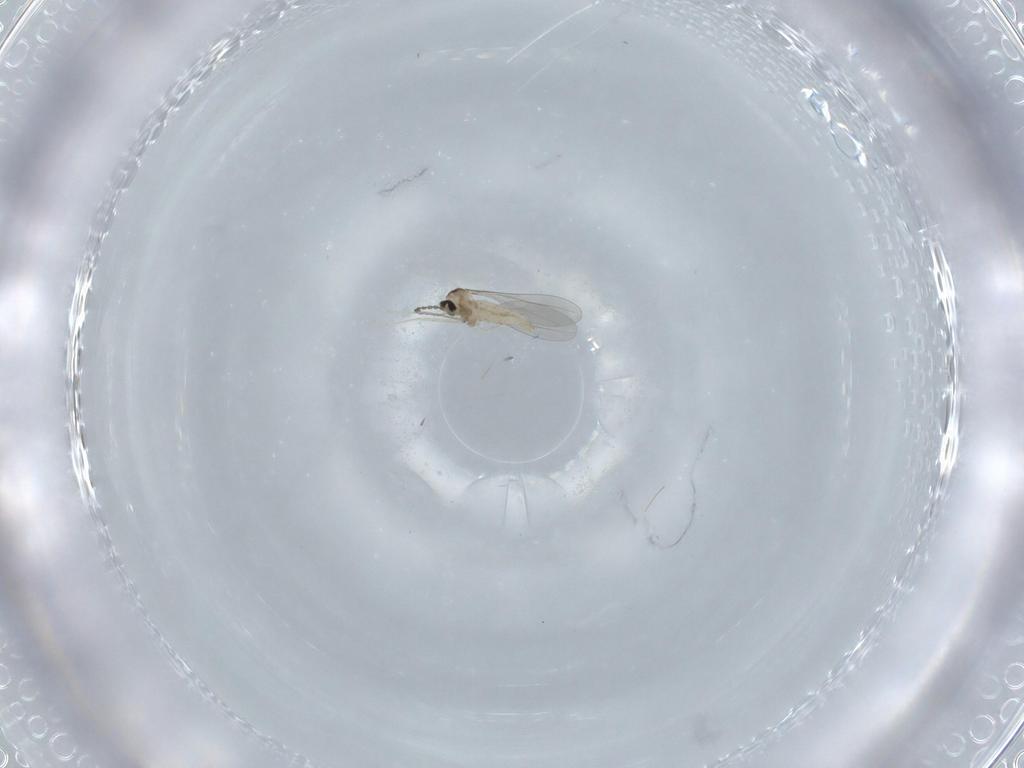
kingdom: Animalia
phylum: Arthropoda
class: Insecta
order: Diptera
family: Cecidomyiidae
